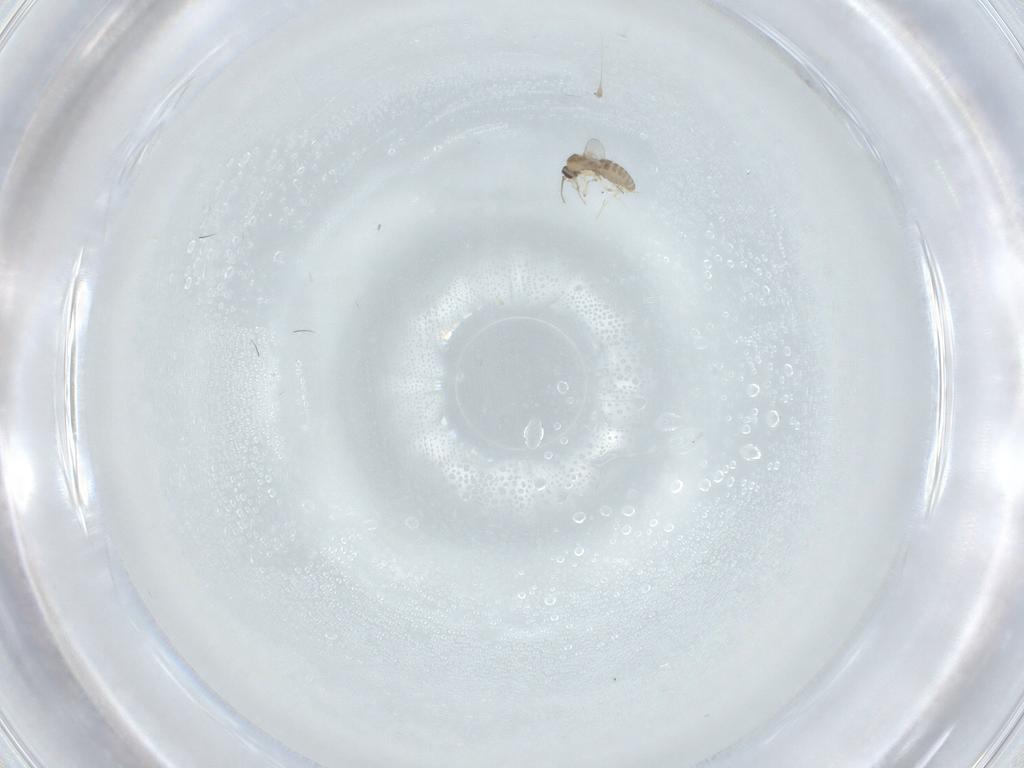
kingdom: Animalia
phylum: Arthropoda
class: Insecta
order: Diptera
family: Ceratopogonidae
